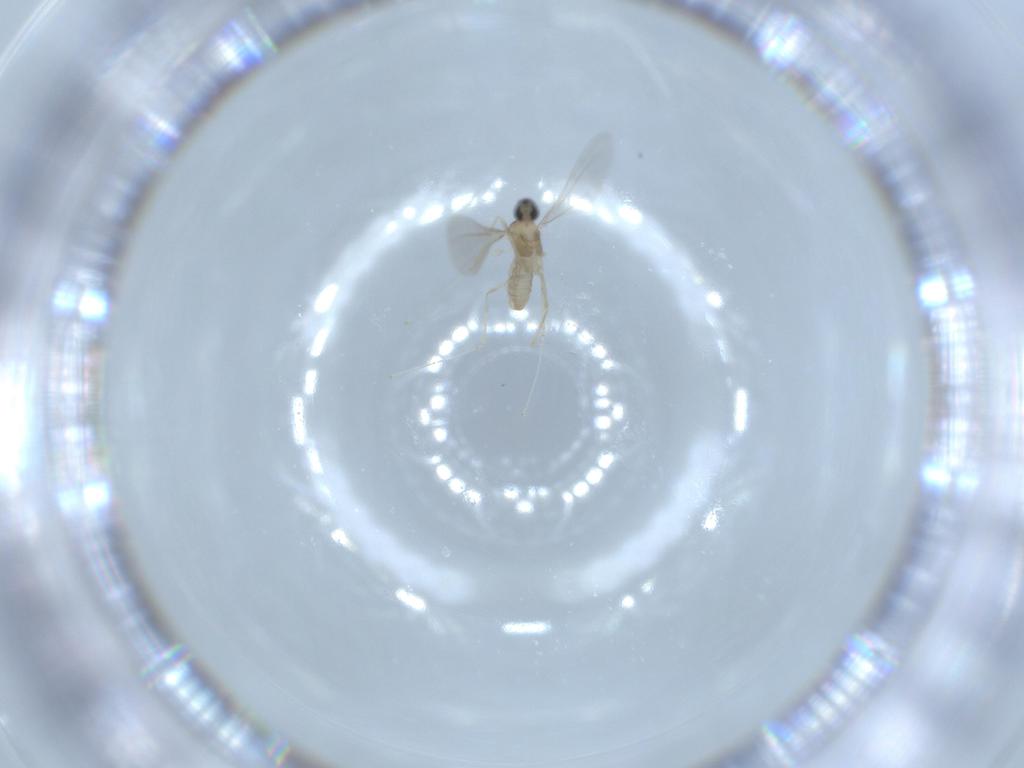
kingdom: Animalia
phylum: Arthropoda
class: Insecta
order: Diptera
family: Cecidomyiidae
